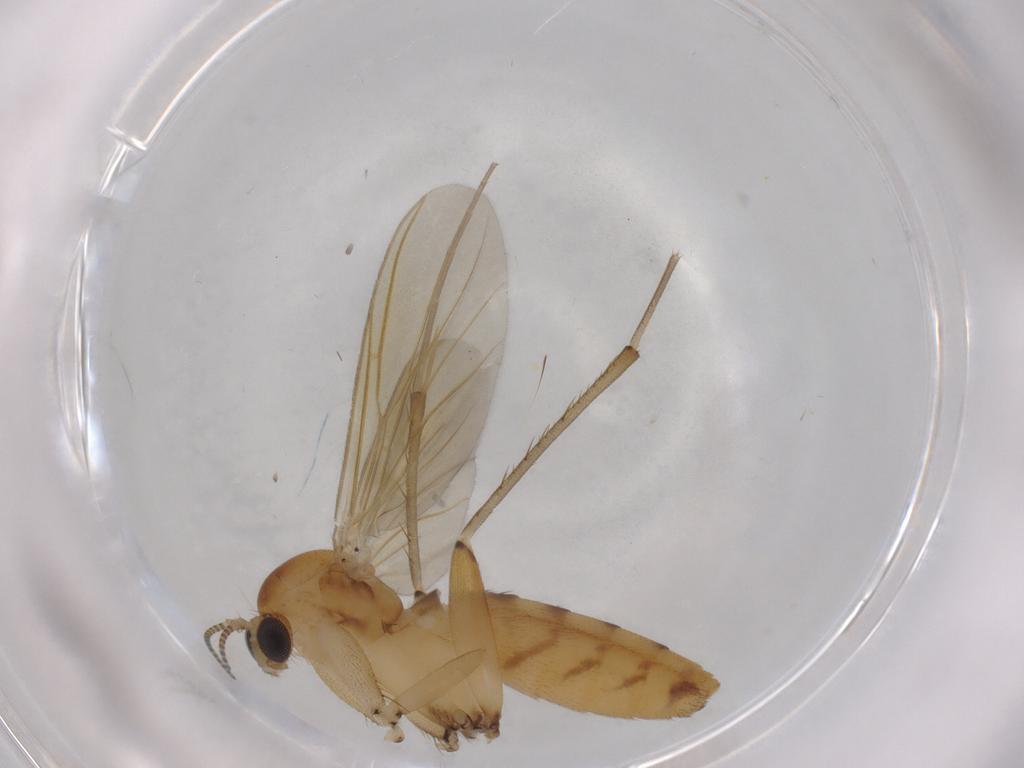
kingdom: Animalia
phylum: Arthropoda
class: Insecta
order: Diptera
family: Mycetophilidae
